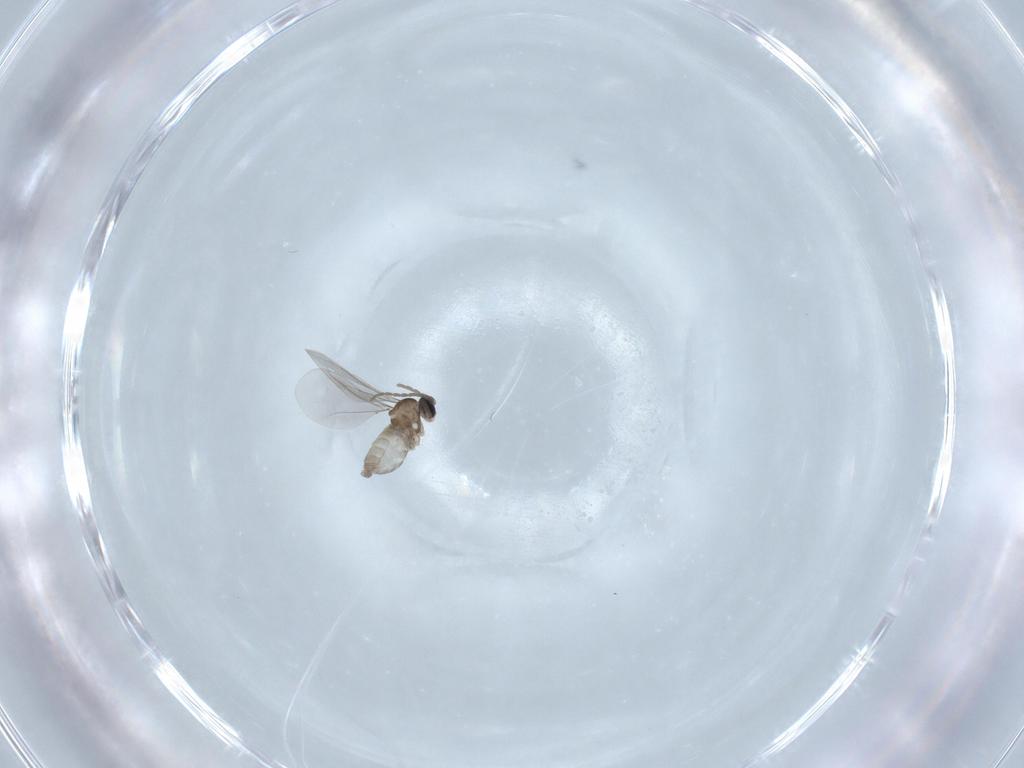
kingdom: Animalia
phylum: Arthropoda
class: Insecta
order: Diptera
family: Cecidomyiidae
